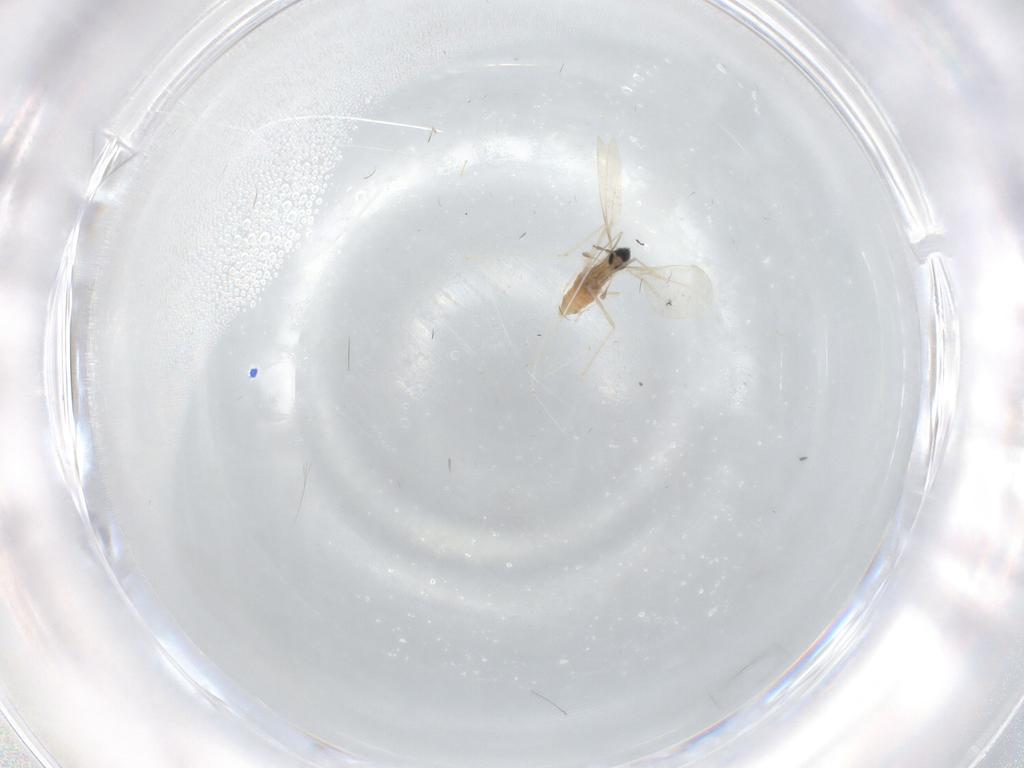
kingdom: Animalia
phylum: Arthropoda
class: Insecta
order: Diptera
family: Cecidomyiidae
